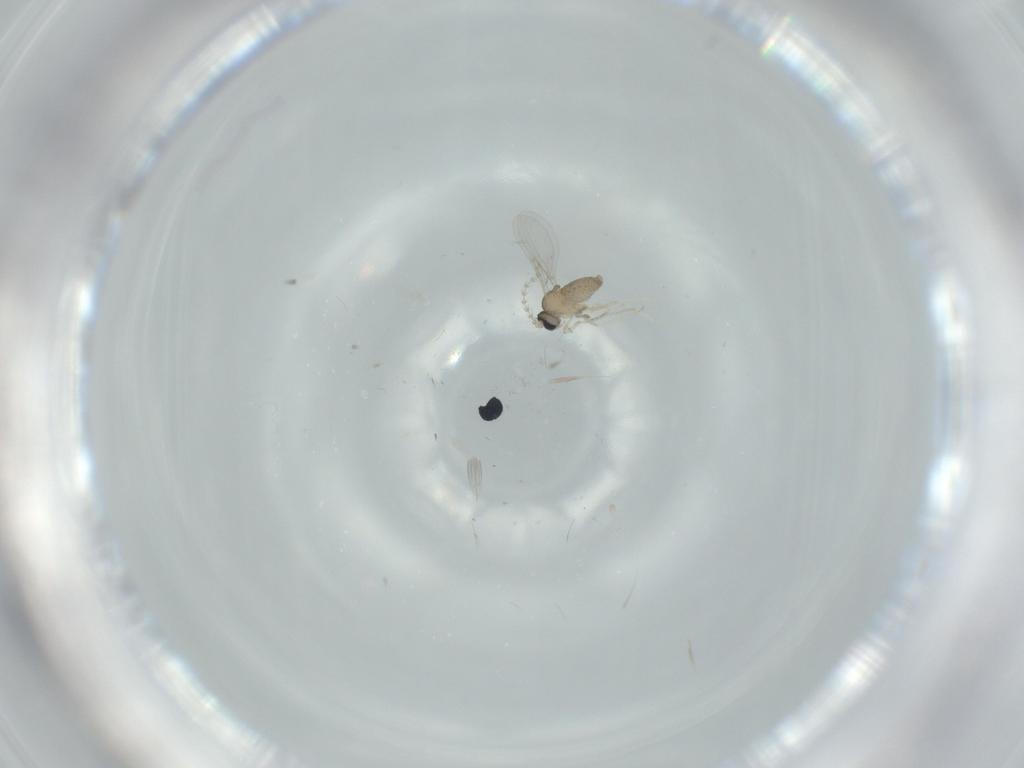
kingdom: Animalia
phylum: Arthropoda
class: Insecta
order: Diptera
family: Cecidomyiidae
